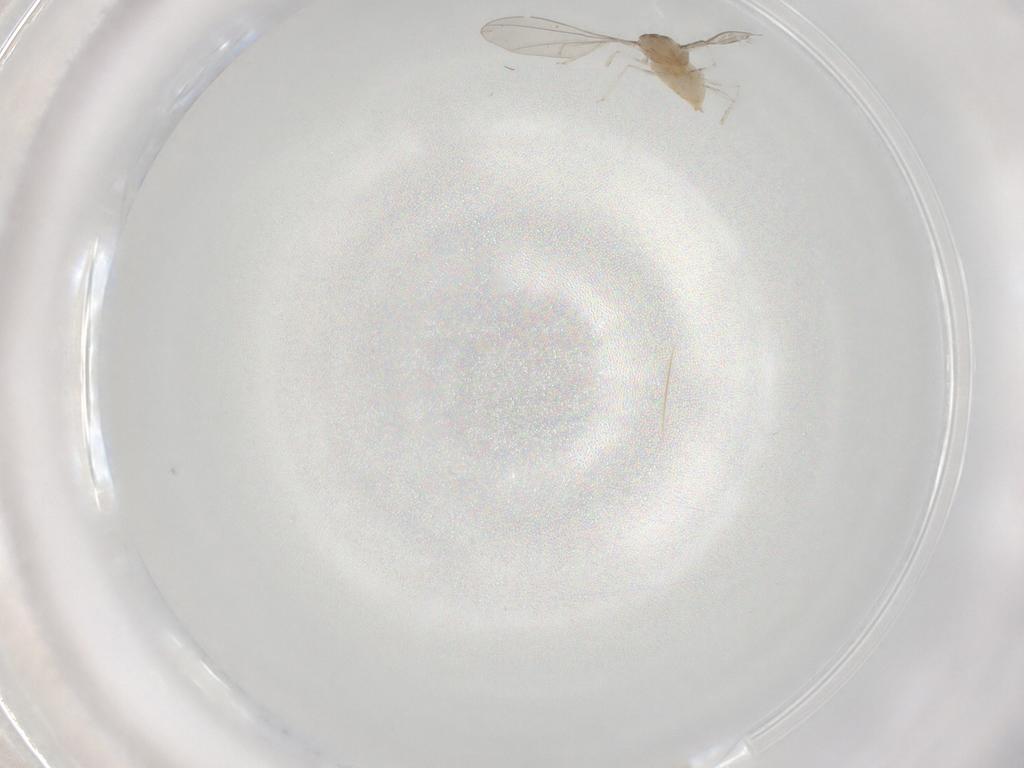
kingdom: Animalia
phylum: Arthropoda
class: Insecta
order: Diptera
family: Cecidomyiidae
